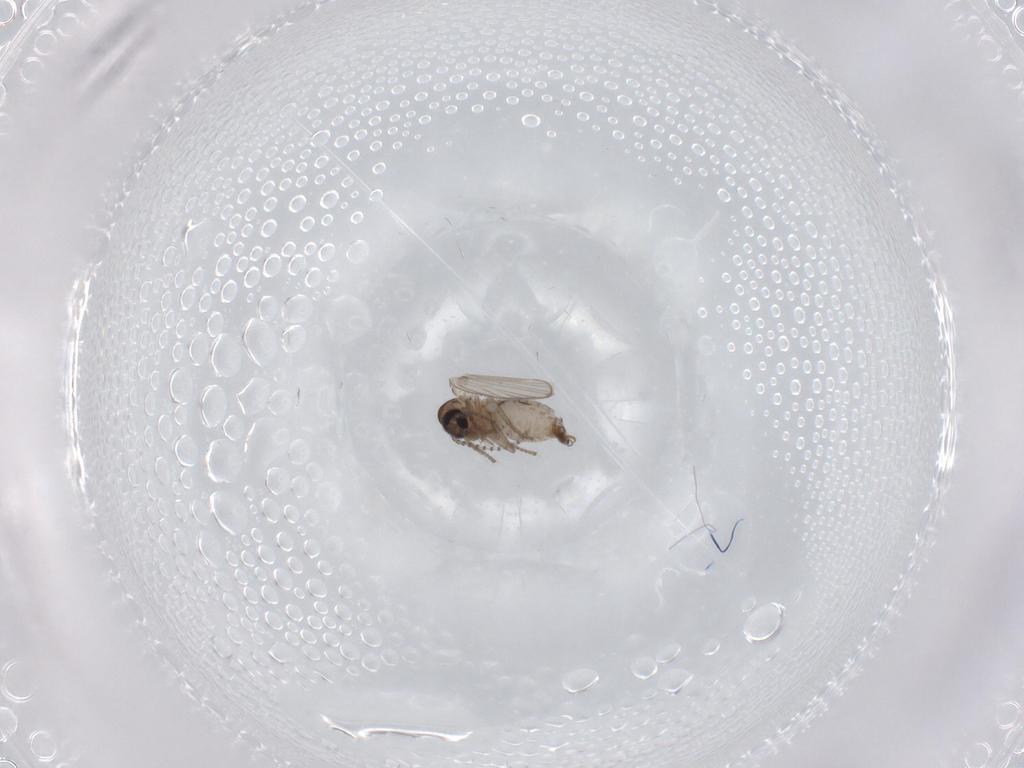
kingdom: Animalia
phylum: Arthropoda
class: Insecta
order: Diptera
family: Psychodidae
